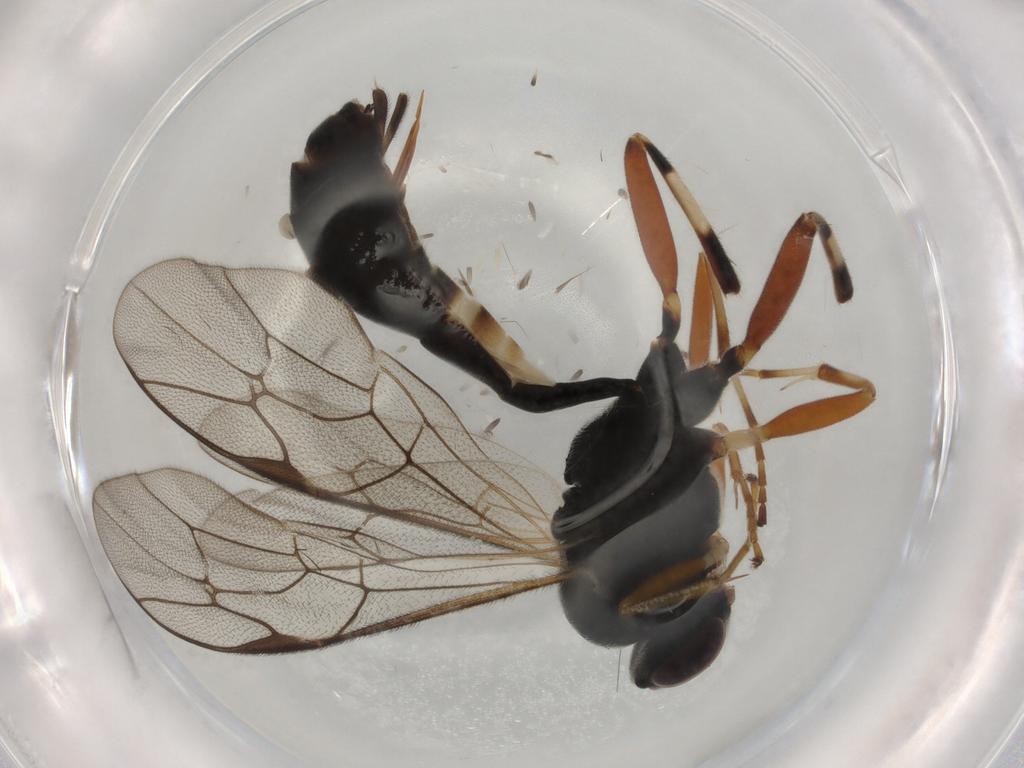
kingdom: Animalia
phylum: Arthropoda
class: Insecta
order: Hymenoptera
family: Ichneumonidae
